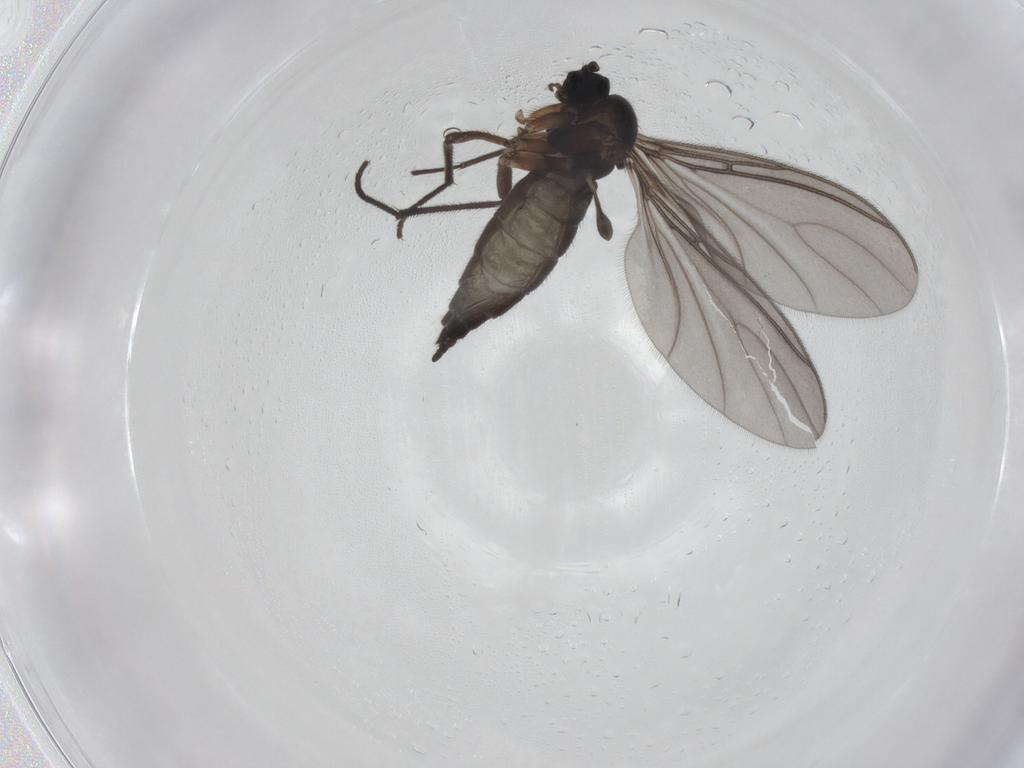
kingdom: Animalia
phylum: Arthropoda
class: Insecta
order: Diptera
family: Sciaridae
